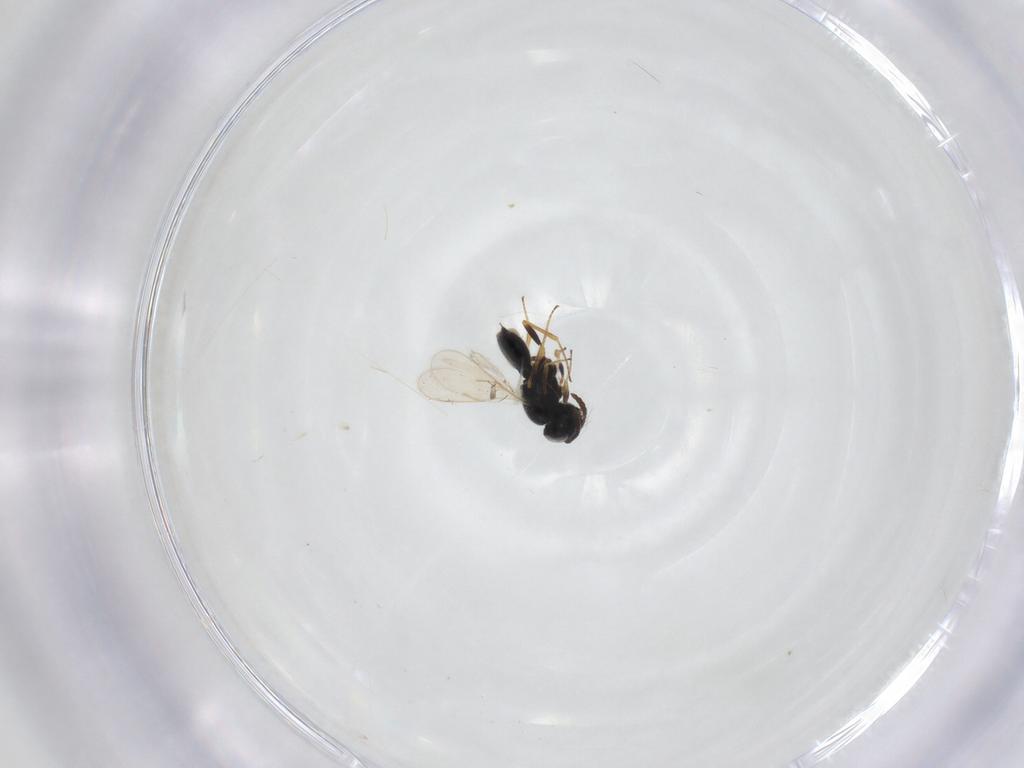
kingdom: Animalia
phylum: Arthropoda
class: Insecta
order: Hymenoptera
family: Scelionidae
